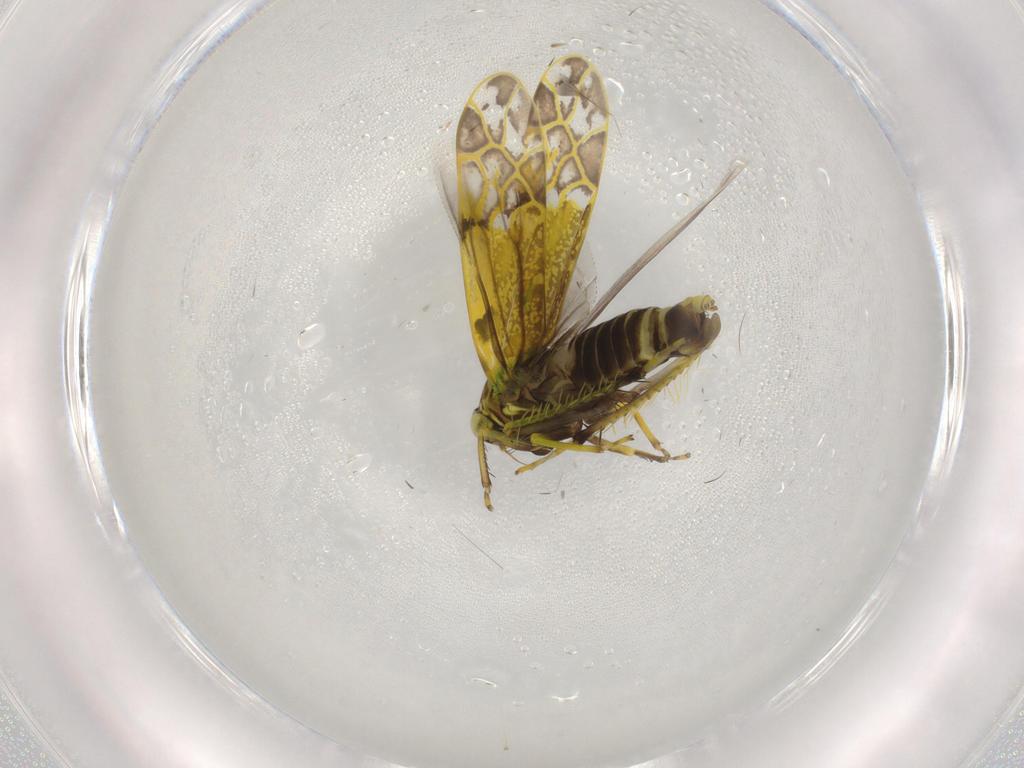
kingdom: Animalia
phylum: Arthropoda
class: Insecta
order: Hemiptera
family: Cicadellidae
